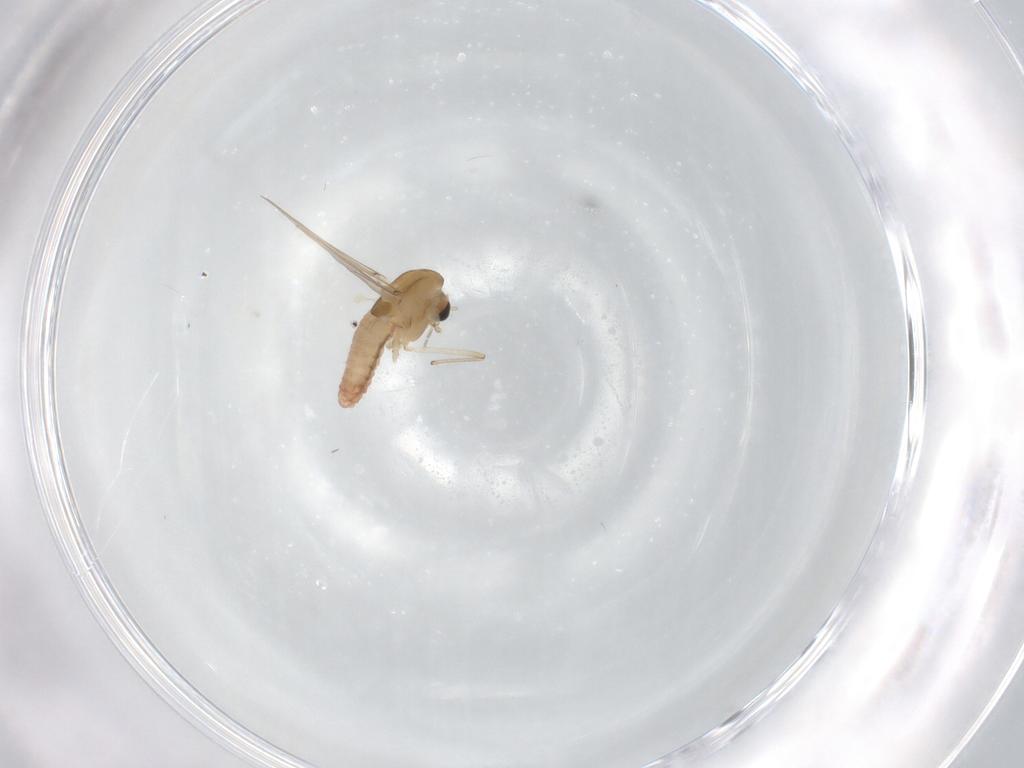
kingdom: Animalia
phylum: Arthropoda
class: Insecta
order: Diptera
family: Chironomidae
